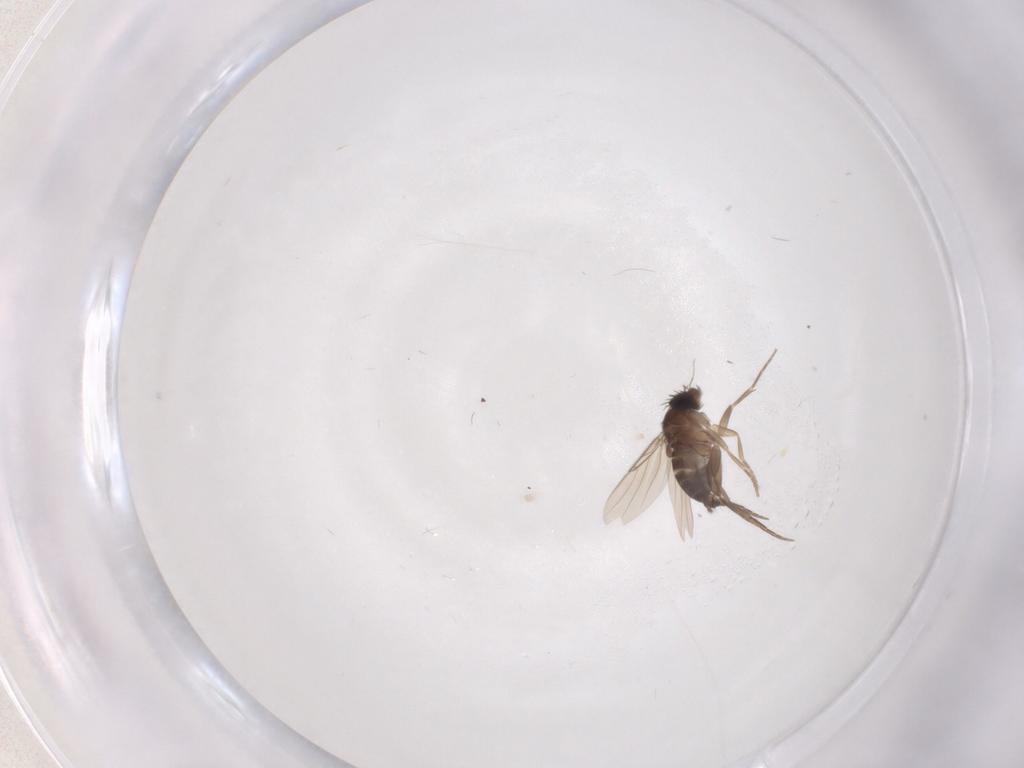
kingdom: Animalia
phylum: Arthropoda
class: Insecta
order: Diptera
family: Phoridae
